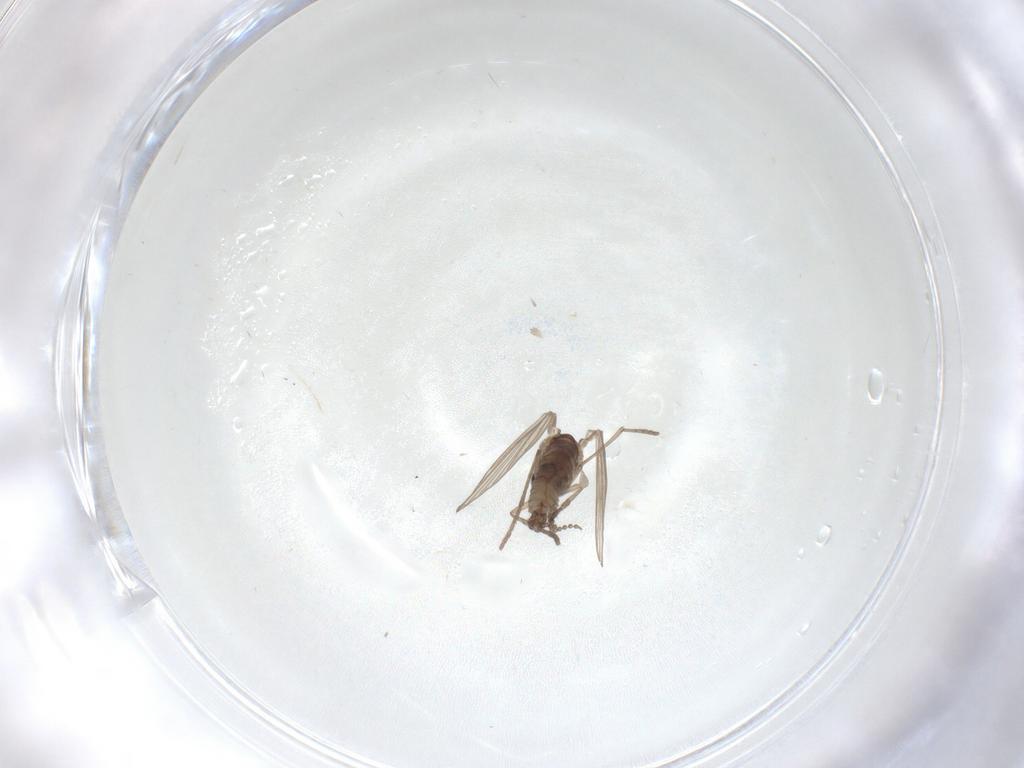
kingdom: Animalia
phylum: Arthropoda
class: Insecta
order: Diptera
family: Psychodidae
